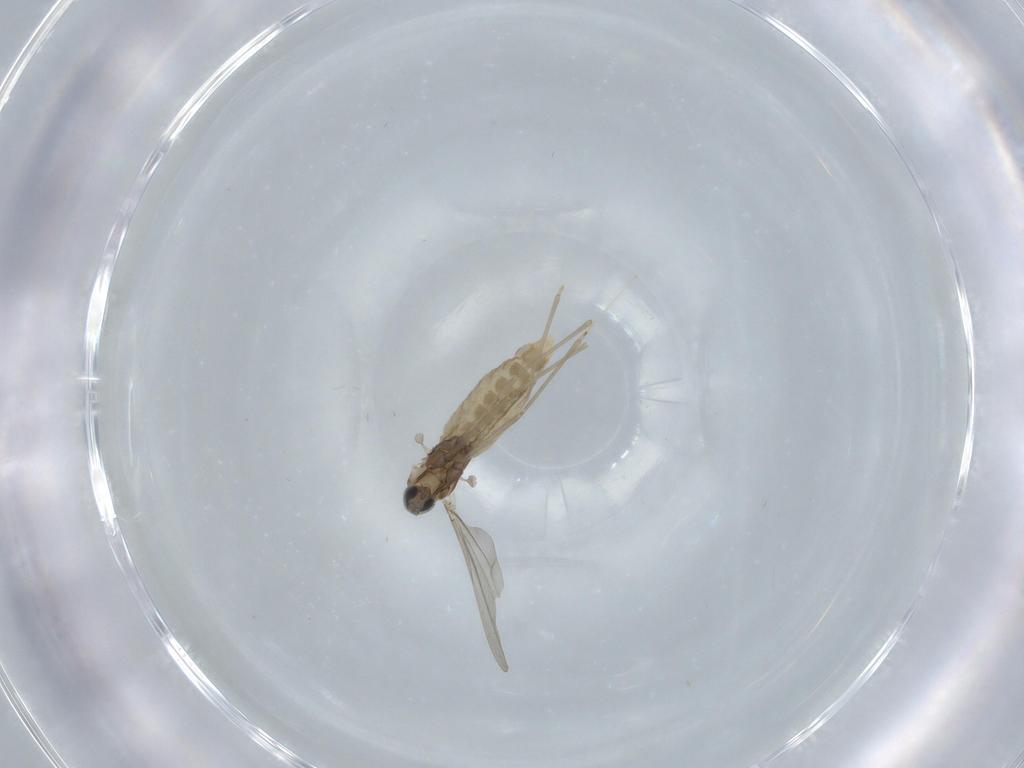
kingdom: Animalia
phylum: Arthropoda
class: Insecta
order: Diptera
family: Cecidomyiidae
